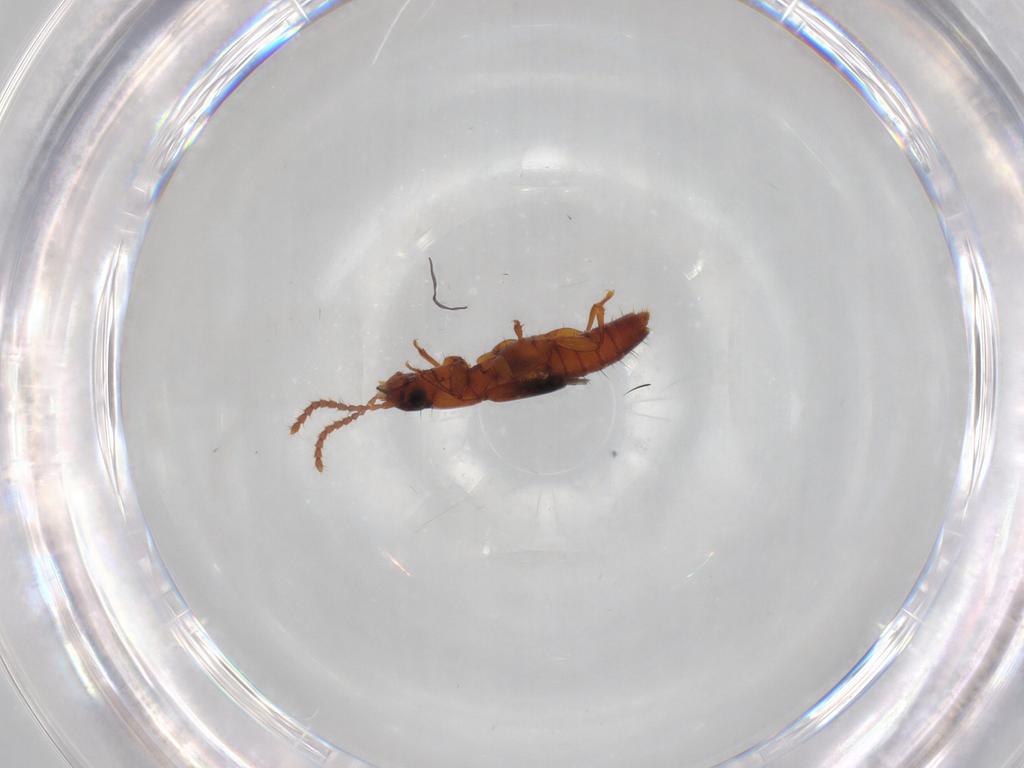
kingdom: Animalia
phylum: Arthropoda
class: Insecta
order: Coleoptera
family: Staphylinidae
